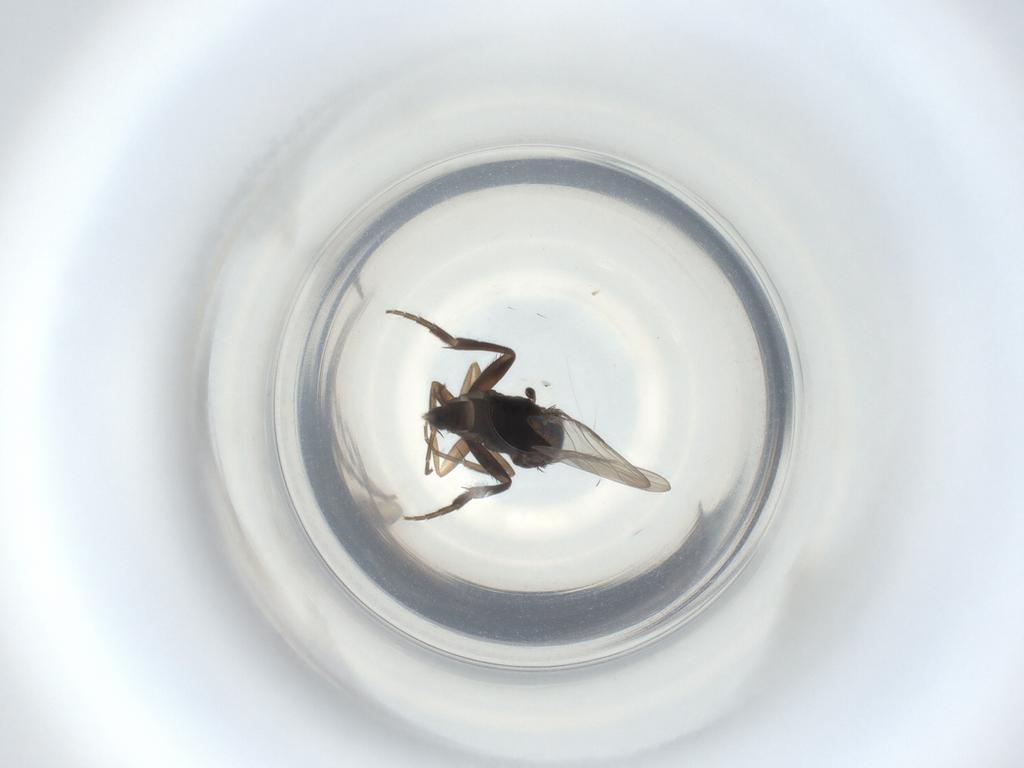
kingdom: Animalia
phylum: Arthropoda
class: Insecta
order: Diptera
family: Phoridae
